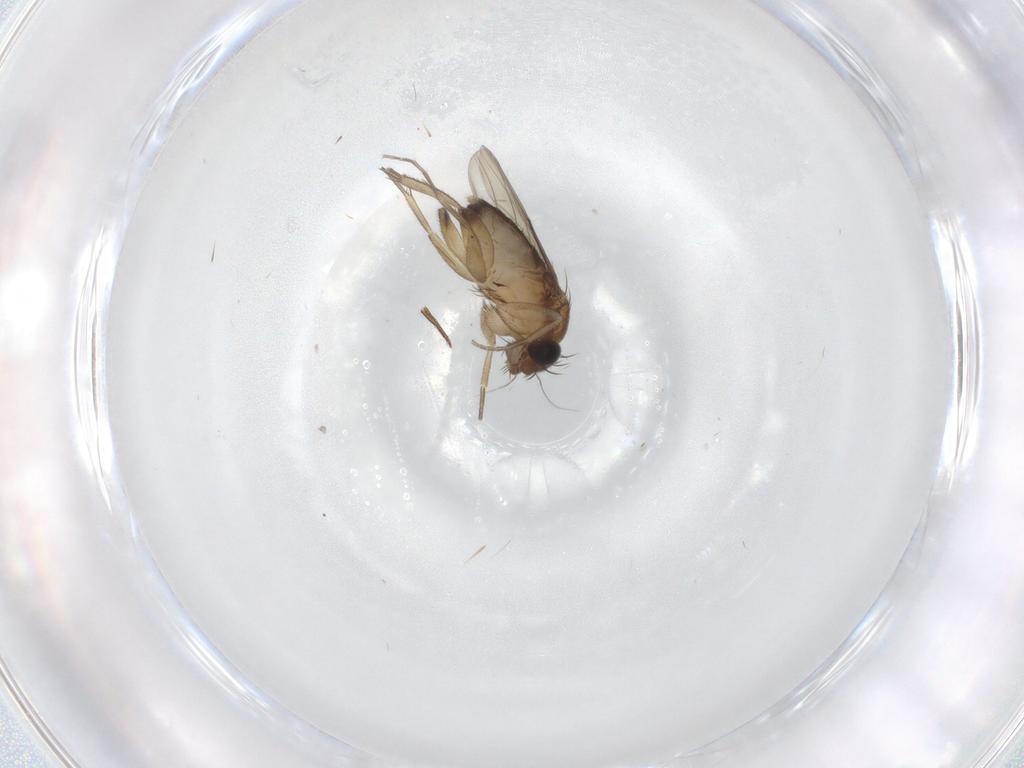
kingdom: Animalia
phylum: Arthropoda
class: Insecta
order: Diptera
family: Phoridae
